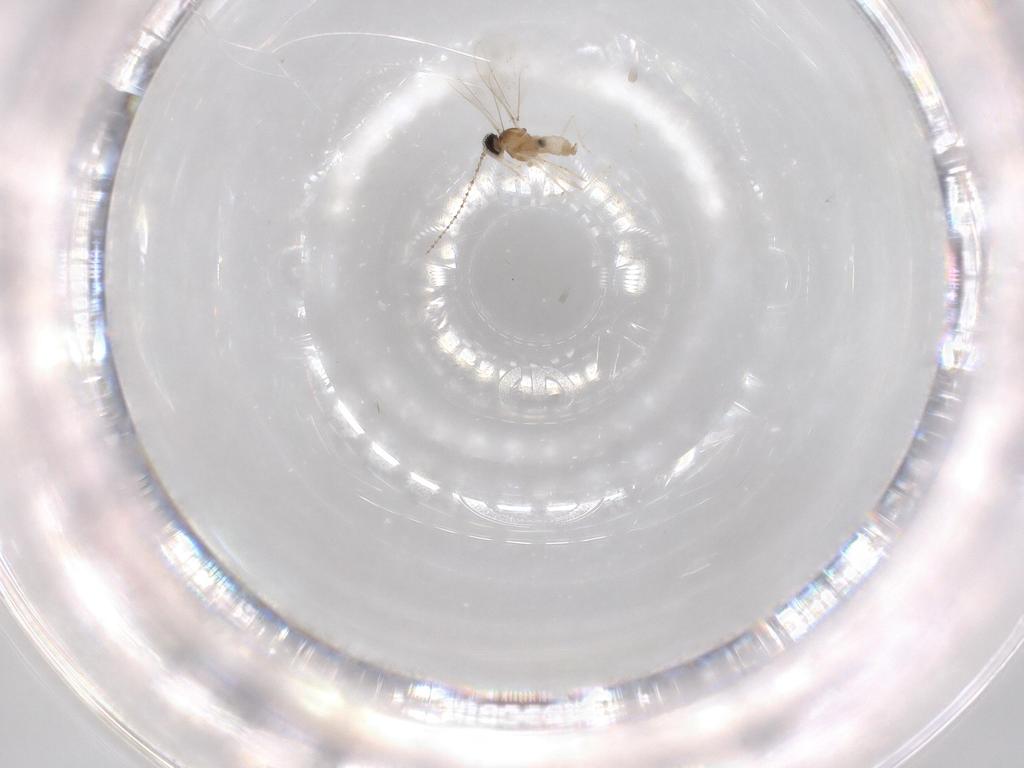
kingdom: Animalia
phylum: Arthropoda
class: Insecta
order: Diptera
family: Cecidomyiidae
